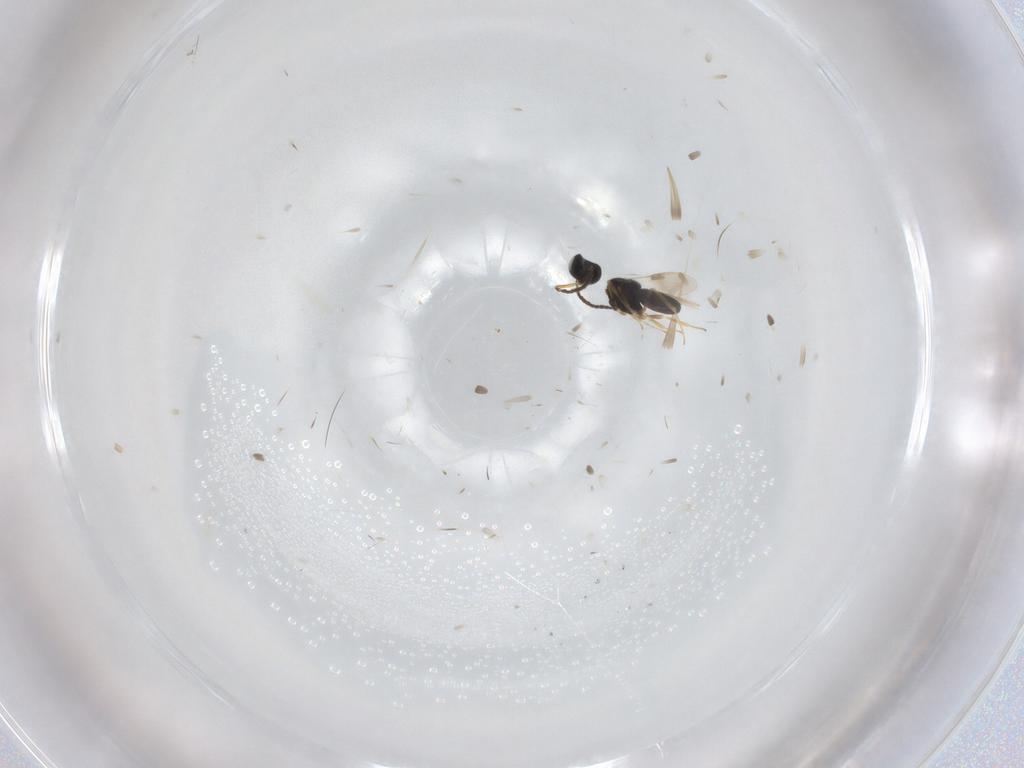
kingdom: Animalia
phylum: Arthropoda
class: Insecta
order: Hymenoptera
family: Scelionidae
